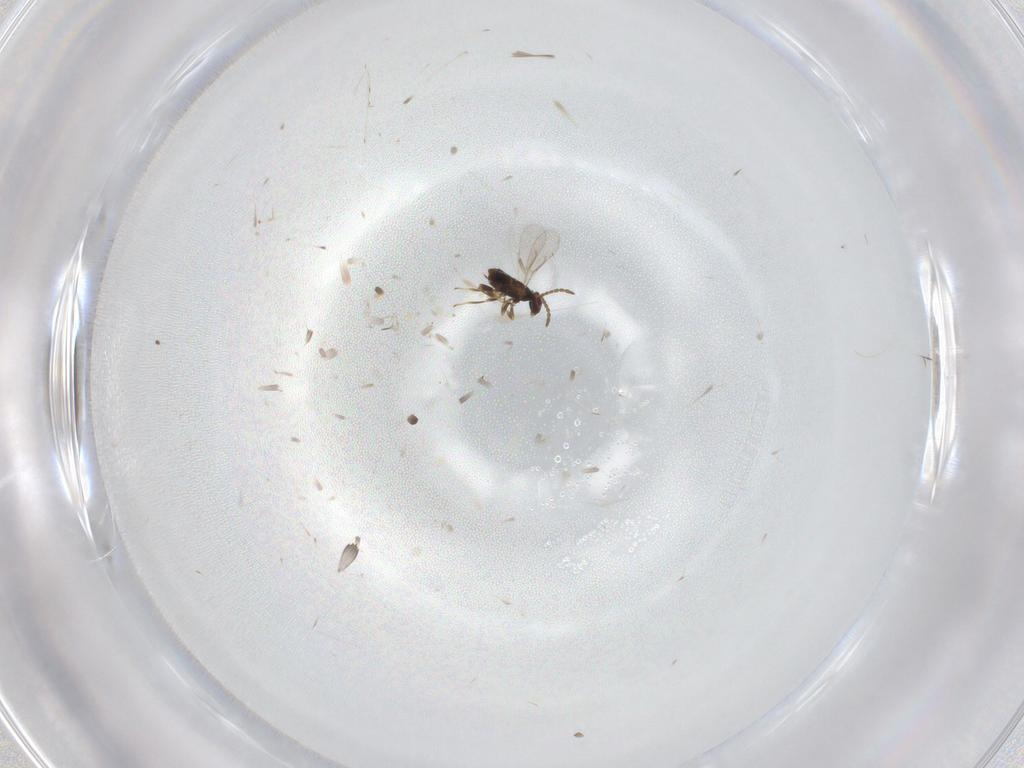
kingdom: Animalia
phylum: Arthropoda
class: Insecta
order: Hymenoptera
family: Aphelinidae
